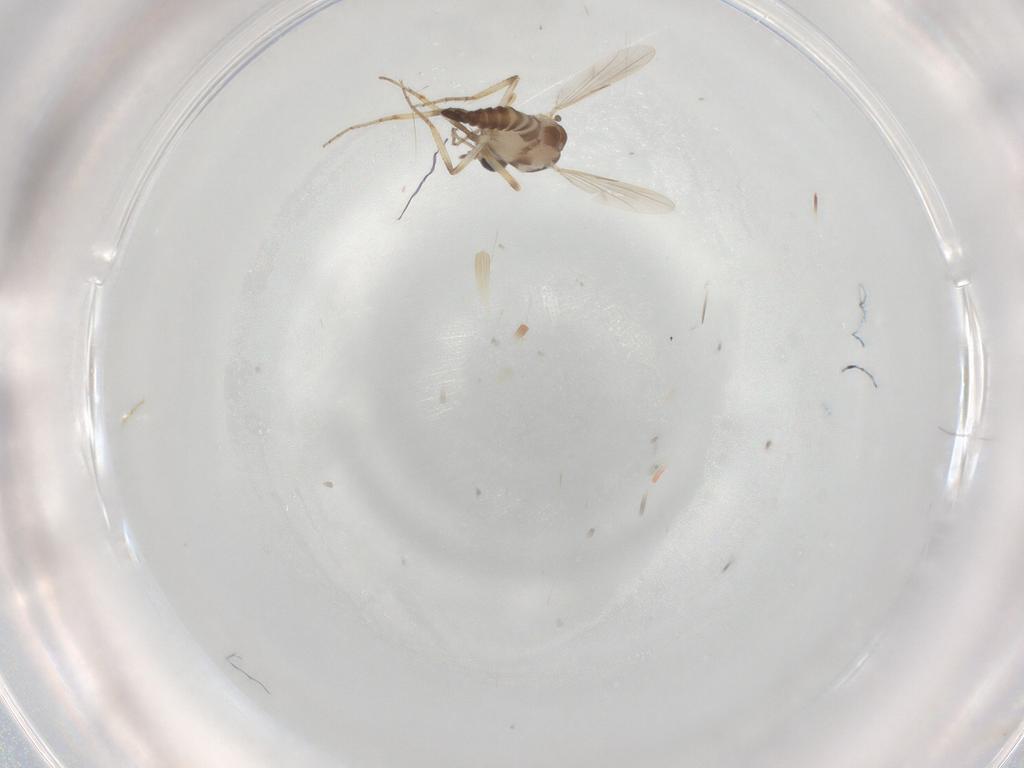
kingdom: Animalia
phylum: Arthropoda
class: Insecta
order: Diptera
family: Ceratopogonidae
